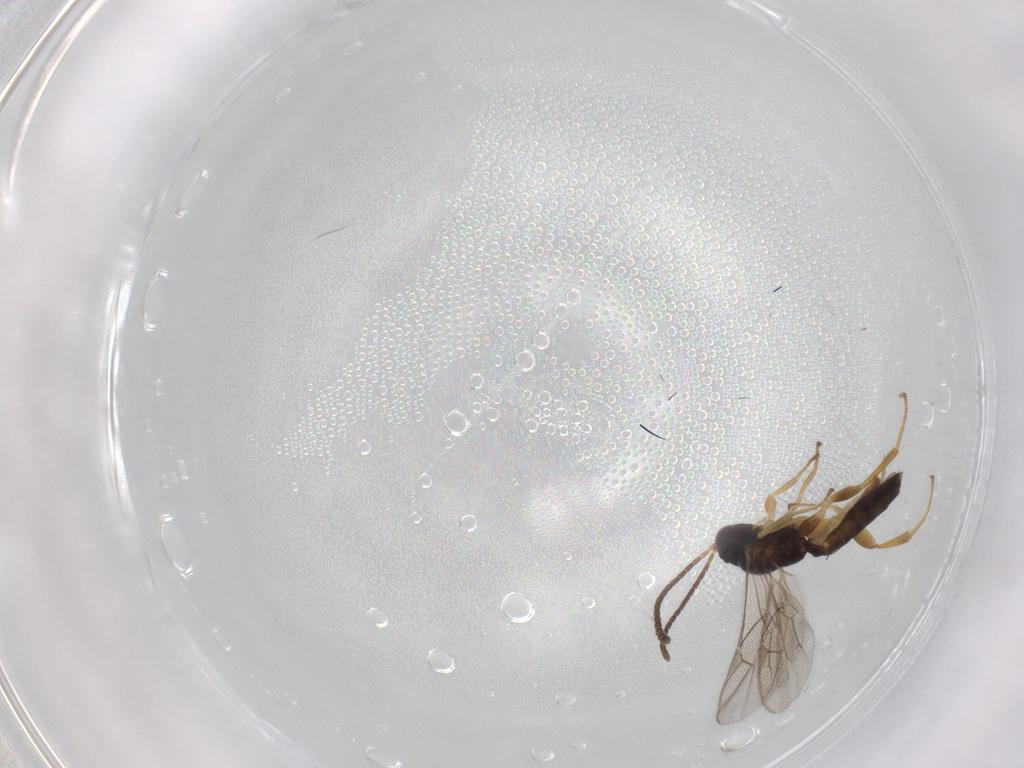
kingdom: Animalia
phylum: Arthropoda
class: Insecta
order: Hymenoptera
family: Ichneumonidae
